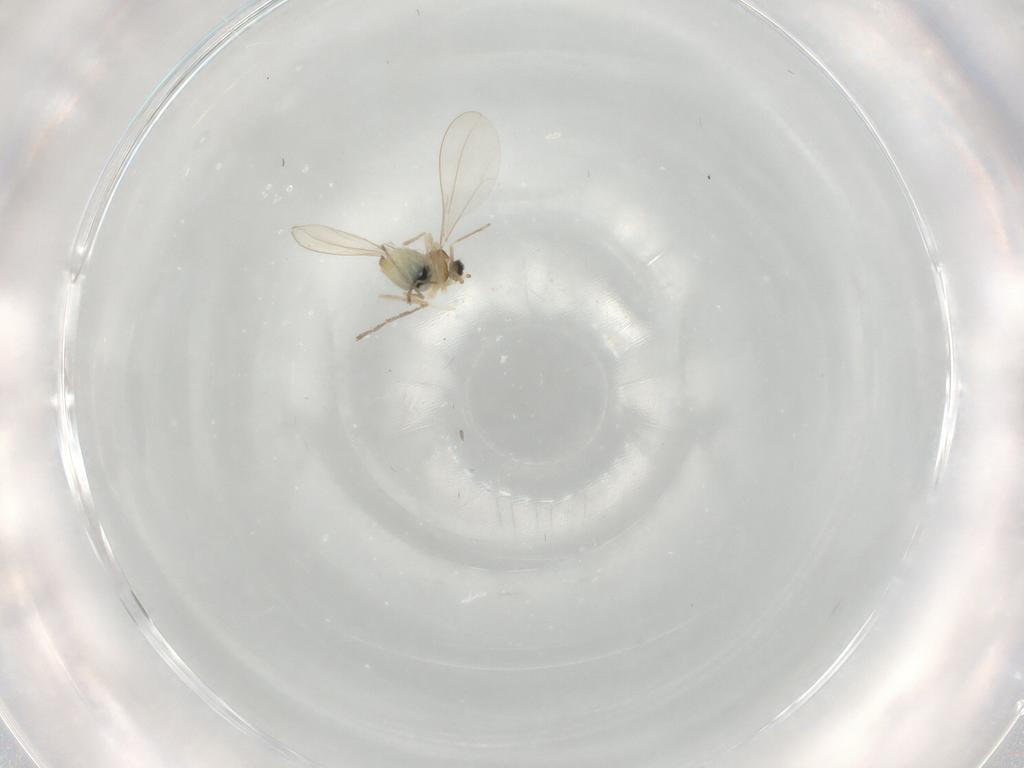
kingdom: Animalia
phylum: Arthropoda
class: Insecta
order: Diptera
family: Cecidomyiidae
